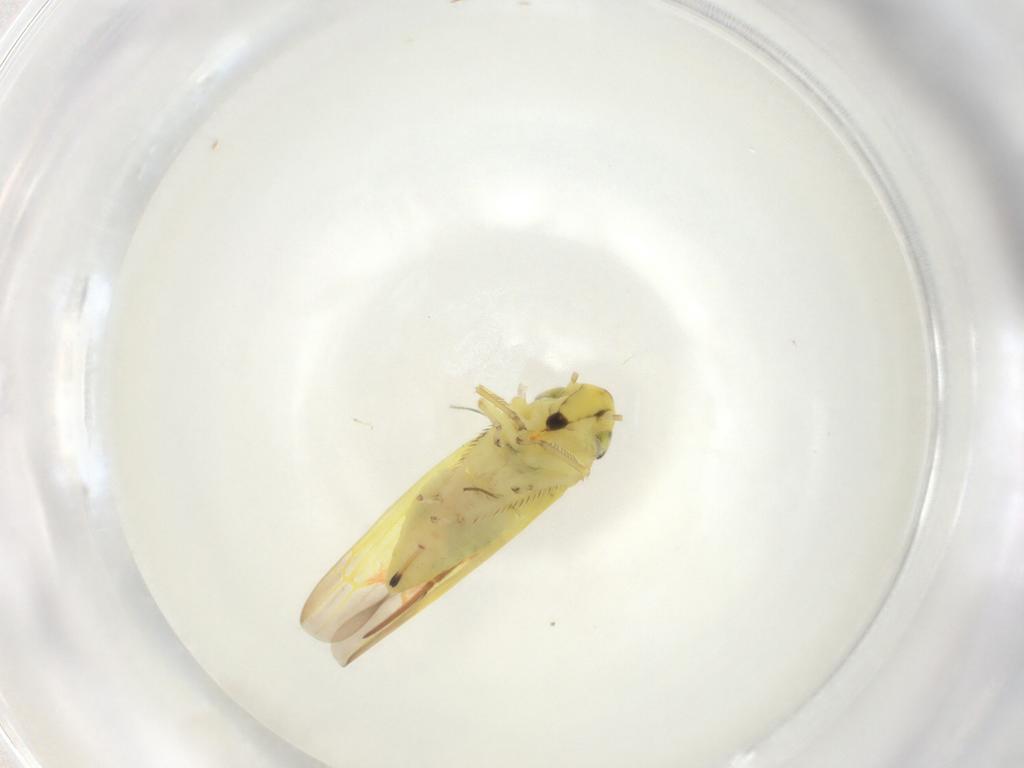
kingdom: Animalia
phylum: Arthropoda
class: Insecta
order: Hemiptera
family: Cicadellidae
